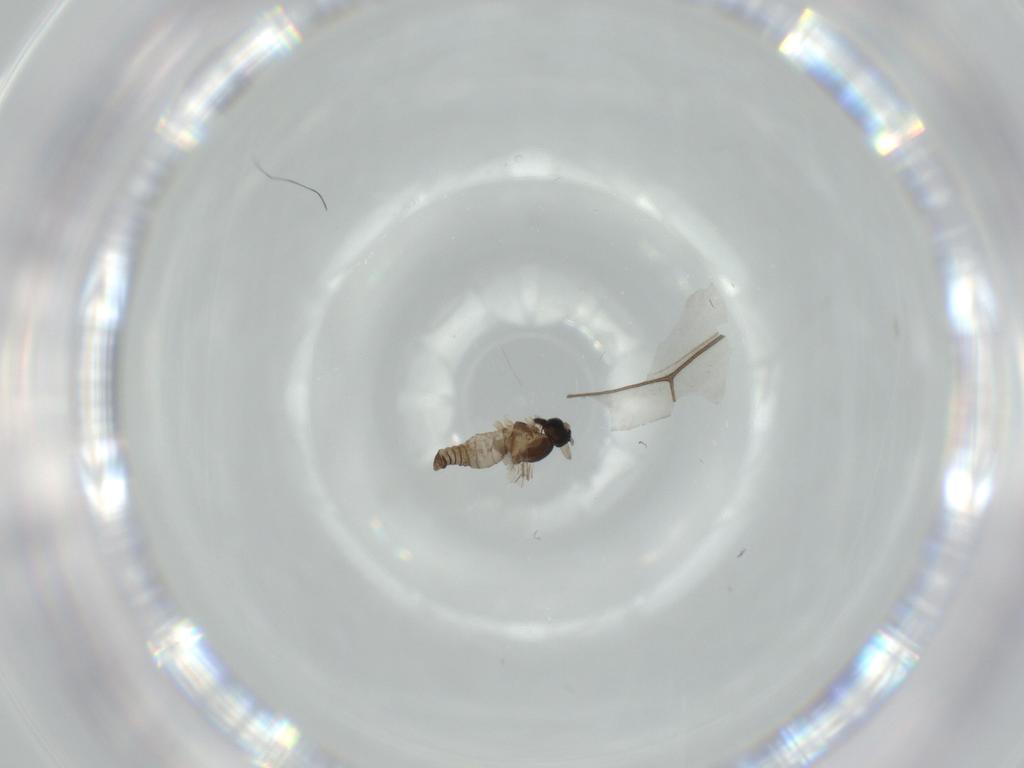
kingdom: Animalia
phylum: Arthropoda
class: Insecta
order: Diptera
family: Cecidomyiidae
